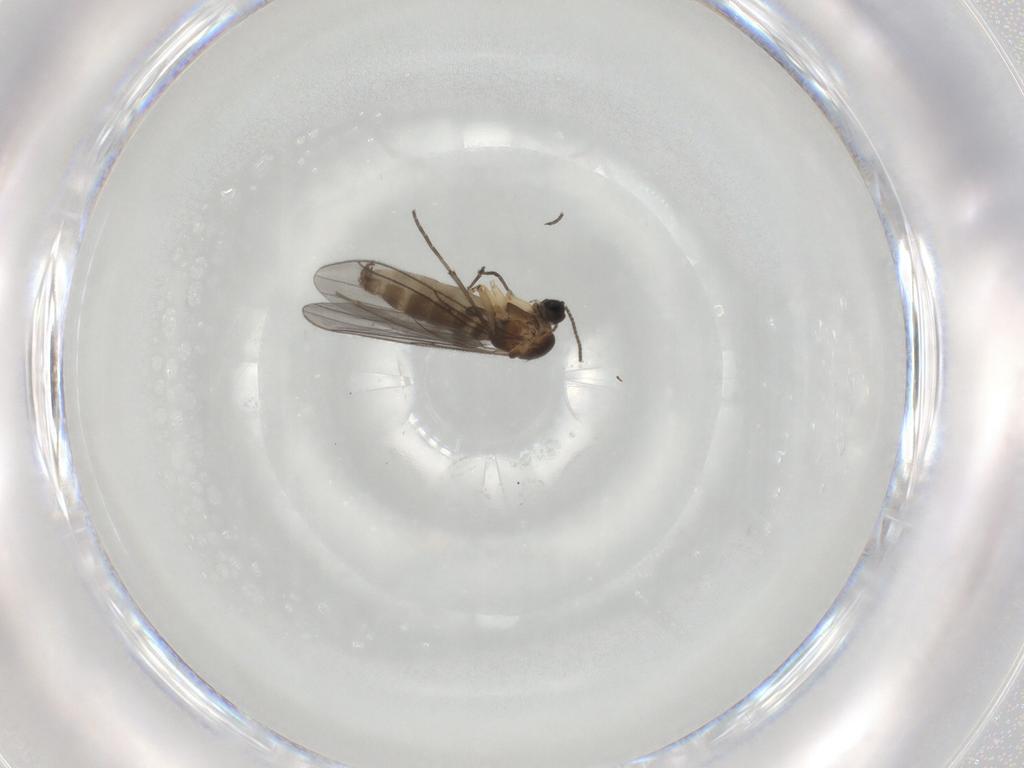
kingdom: Animalia
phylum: Arthropoda
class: Insecta
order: Diptera
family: Sciaridae
